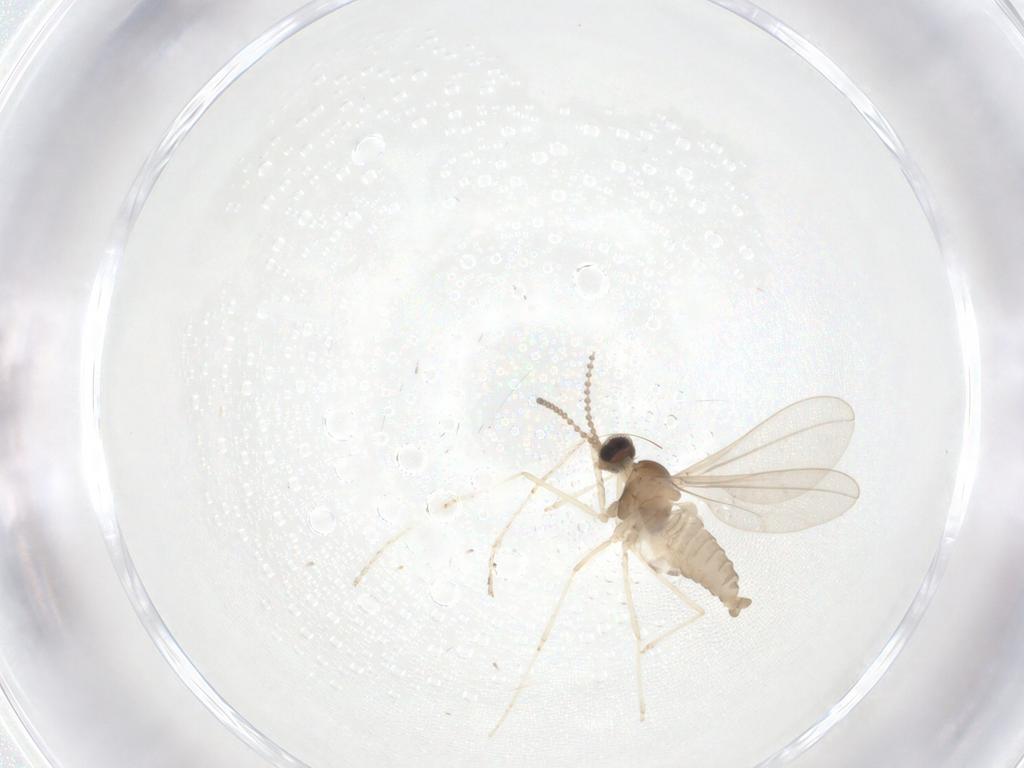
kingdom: Animalia
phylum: Arthropoda
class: Insecta
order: Diptera
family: Cecidomyiidae
